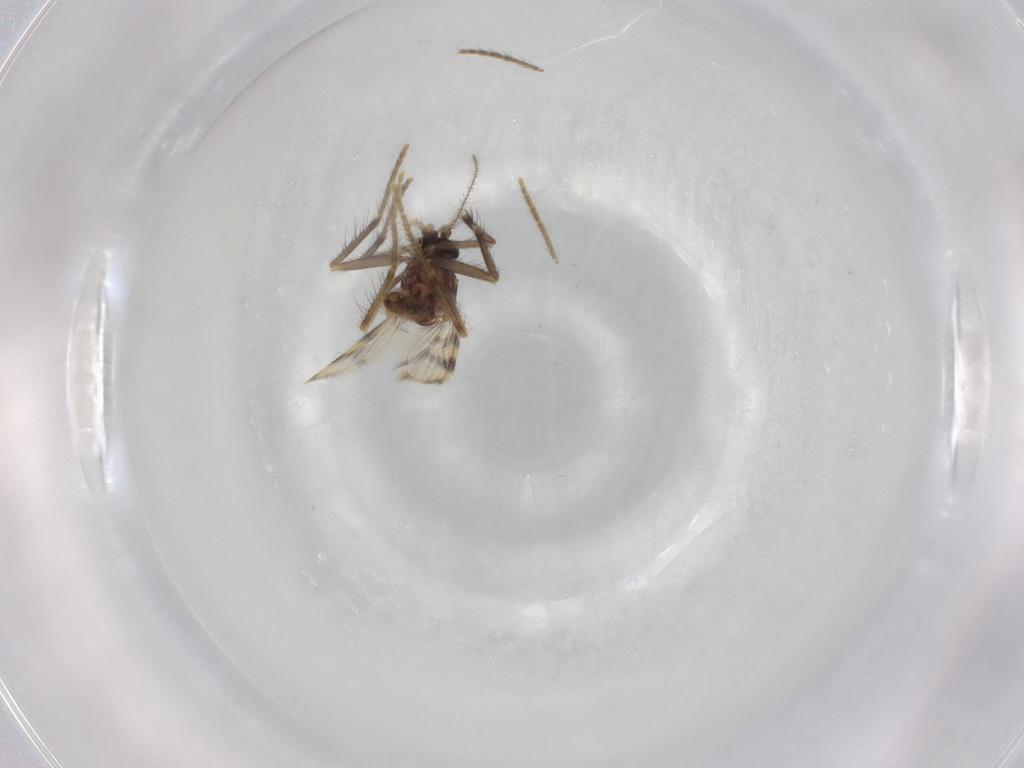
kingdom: Animalia
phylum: Arthropoda
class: Insecta
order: Diptera
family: Corethrellidae
